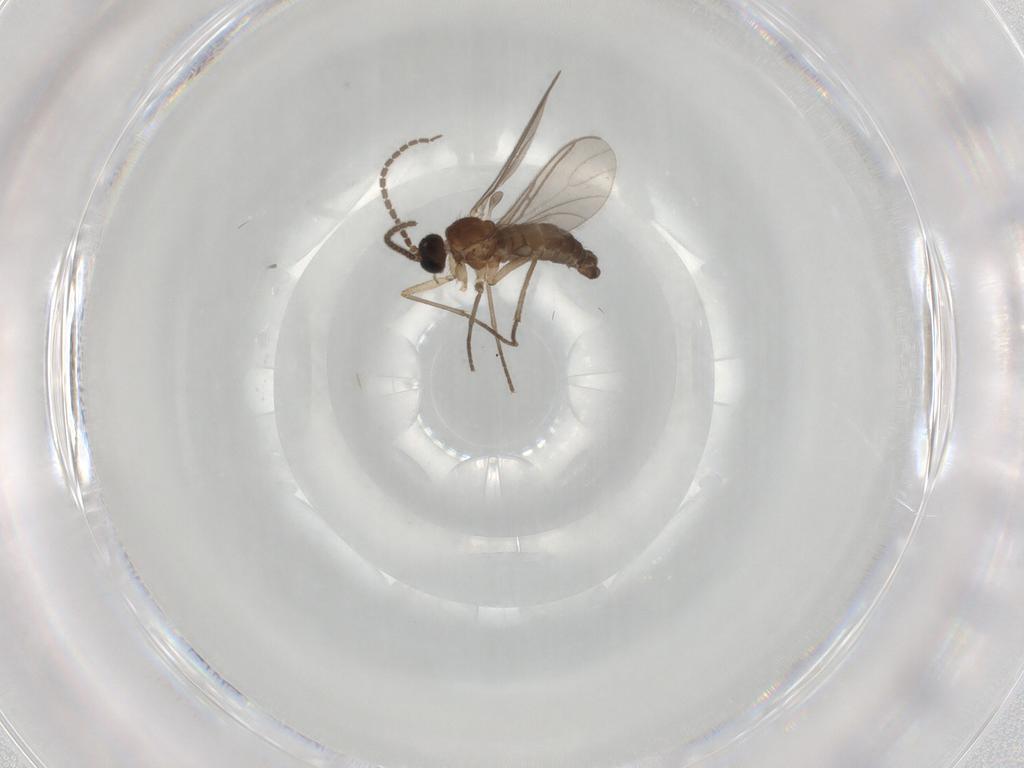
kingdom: Animalia
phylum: Arthropoda
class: Insecta
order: Diptera
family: Sciaridae
